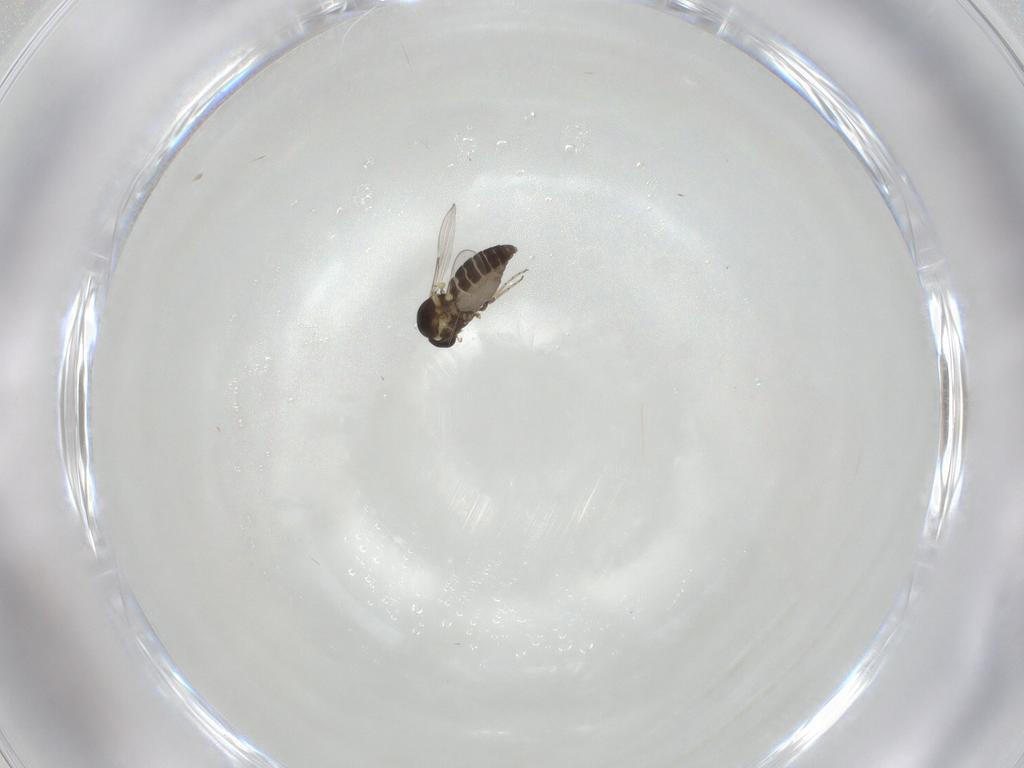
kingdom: Animalia
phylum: Arthropoda
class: Insecta
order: Diptera
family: Ceratopogonidae
